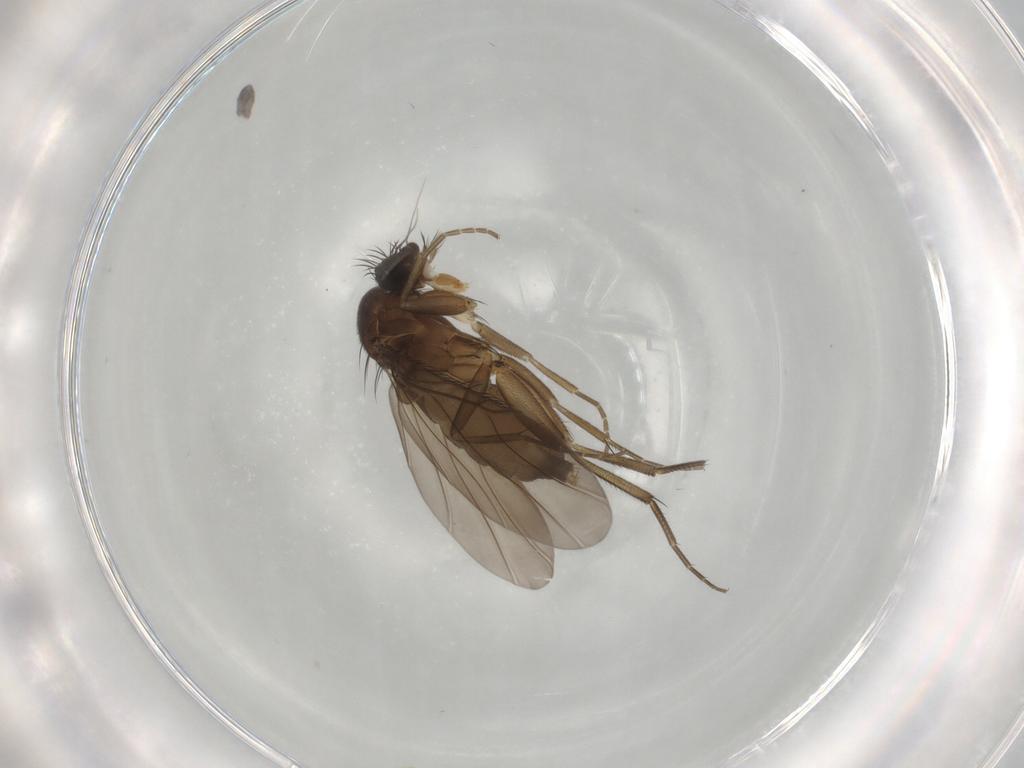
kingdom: Animalia
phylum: Arthropoda
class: Insecta
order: Diptera
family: Phoridae
